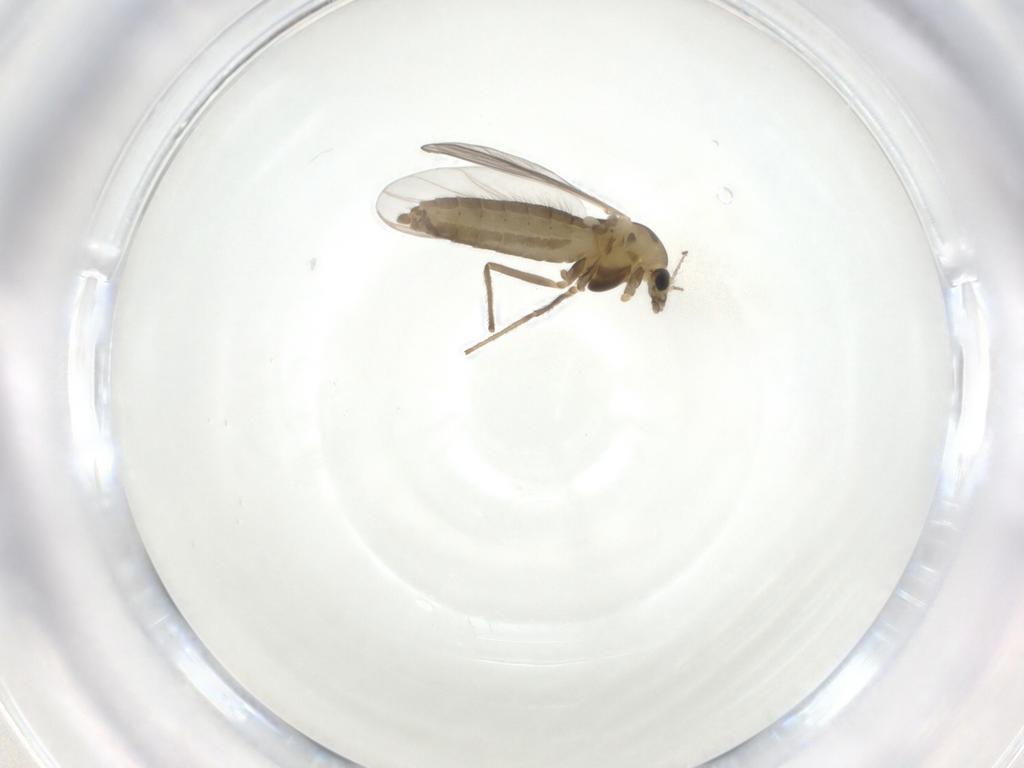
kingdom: Animalia
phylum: Arthropoda
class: Insecta
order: Diptera
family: Chironomidae
